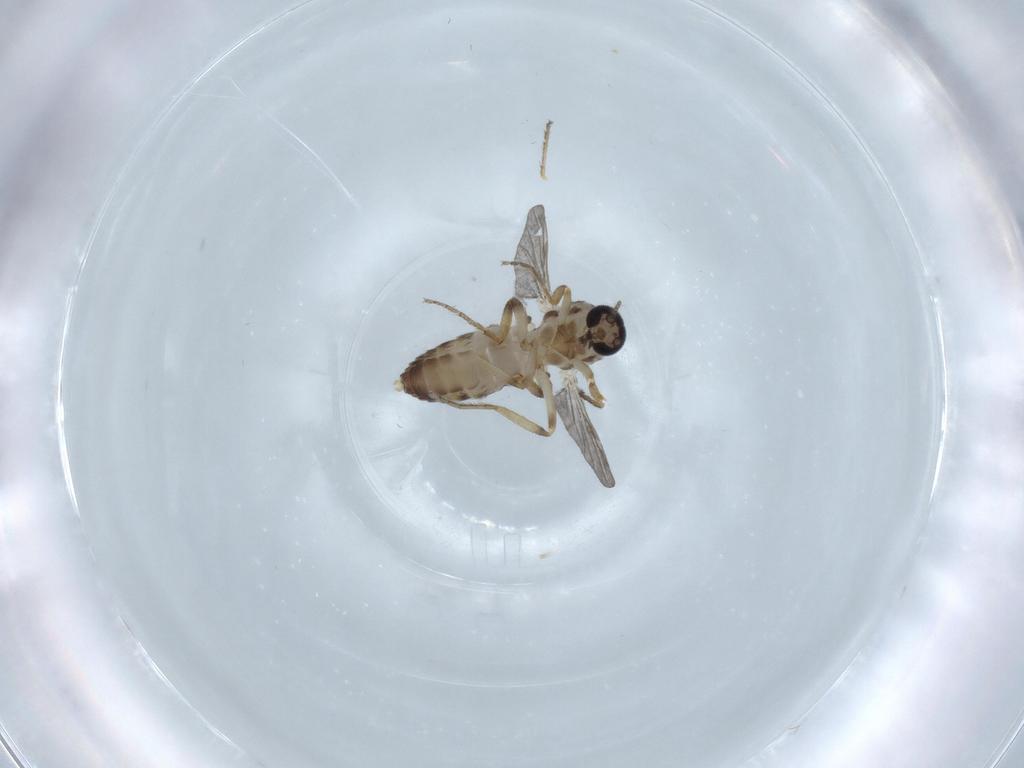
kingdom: Animalia
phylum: Arthropoda
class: Insecta
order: Diptera
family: Ceratopogonidae
